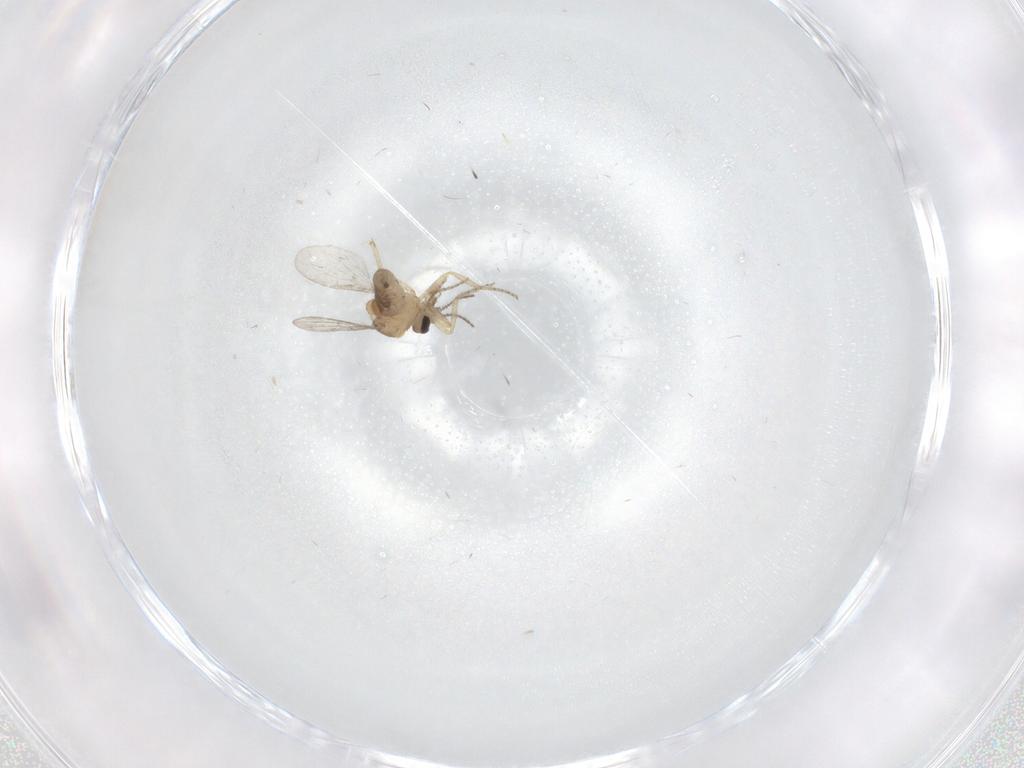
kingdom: Animalia
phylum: Arthropoda
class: Insecta
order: Diptera
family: Ceratopogonidae
